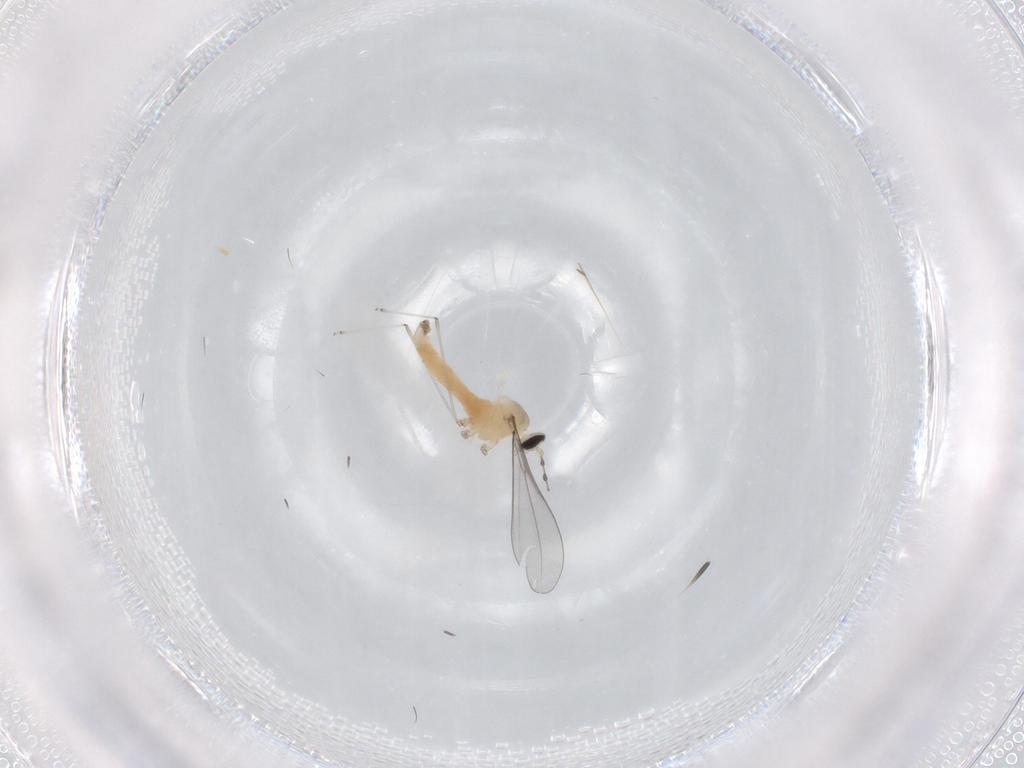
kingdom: Animalia
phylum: Arthropoda
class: Insecta
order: Diptera
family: Cecidomyiidae
